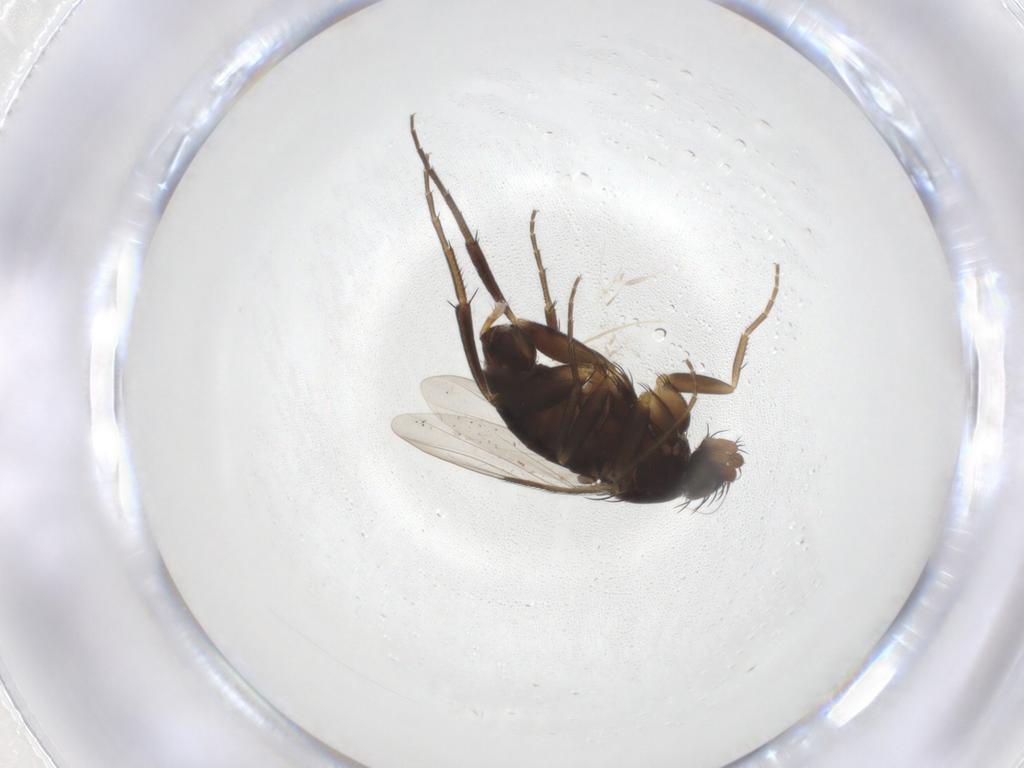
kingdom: Animalia
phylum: Arthropoda
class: Insecta
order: Diptera
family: Phoridae
